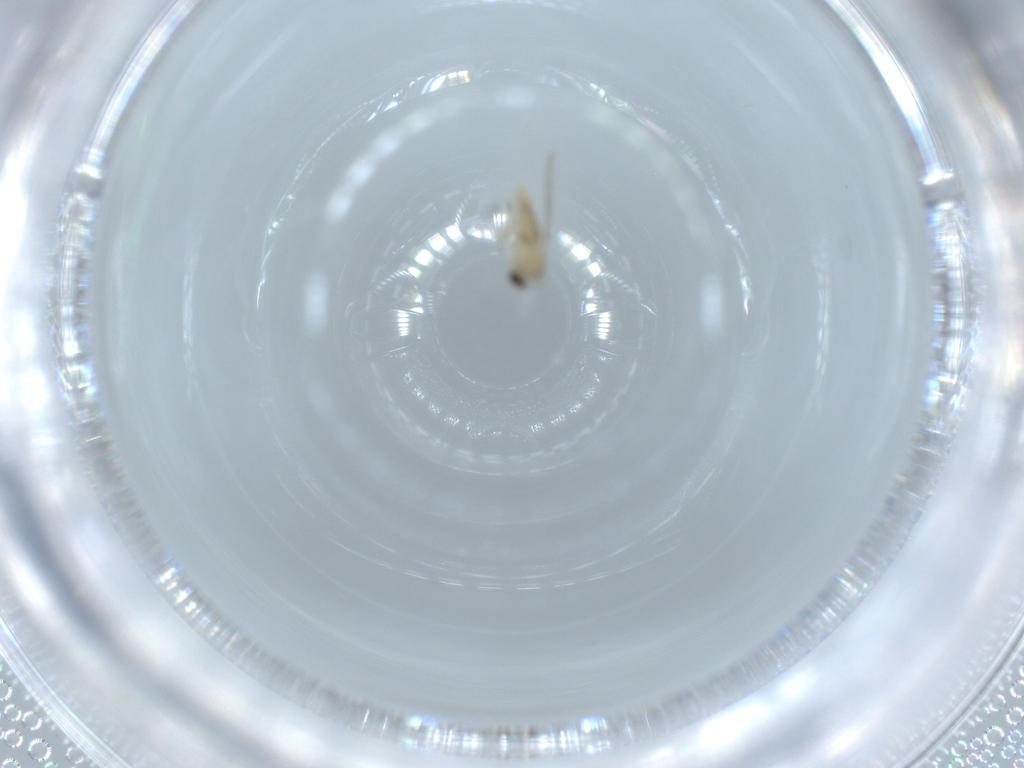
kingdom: Animalia
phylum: Arthropoda
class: Insecta
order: Diptera
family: Cecidomyiidae
